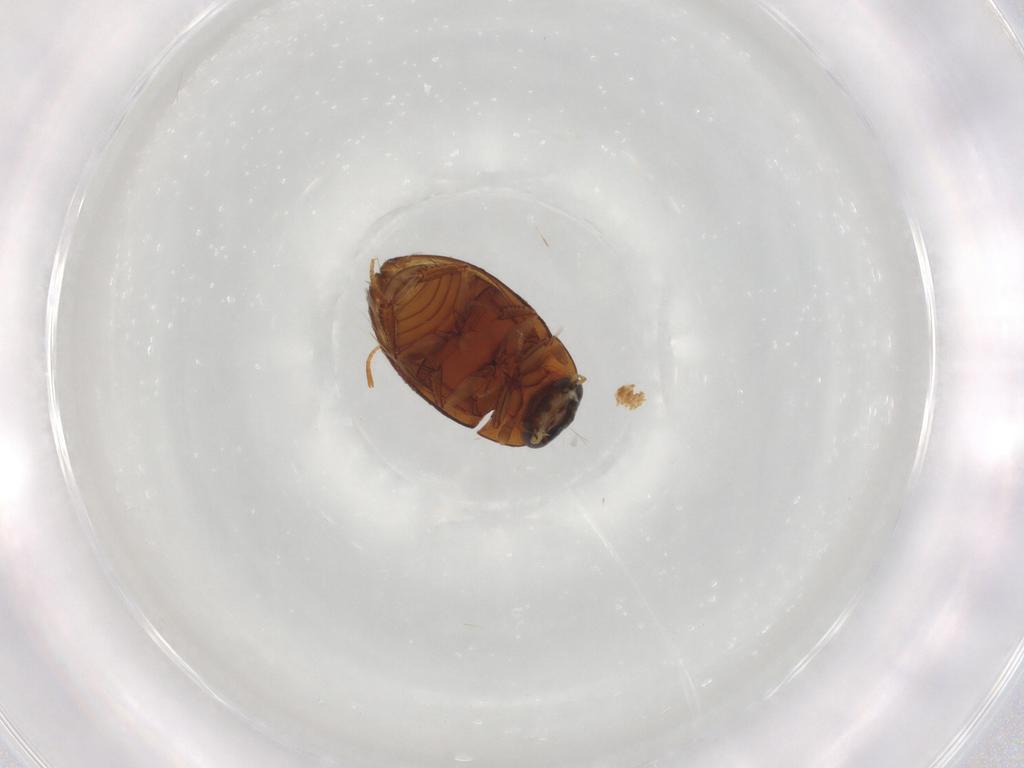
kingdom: Animalia
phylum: Arthropoda
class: Insecta
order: Coleoptera
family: Hydrophilidae
